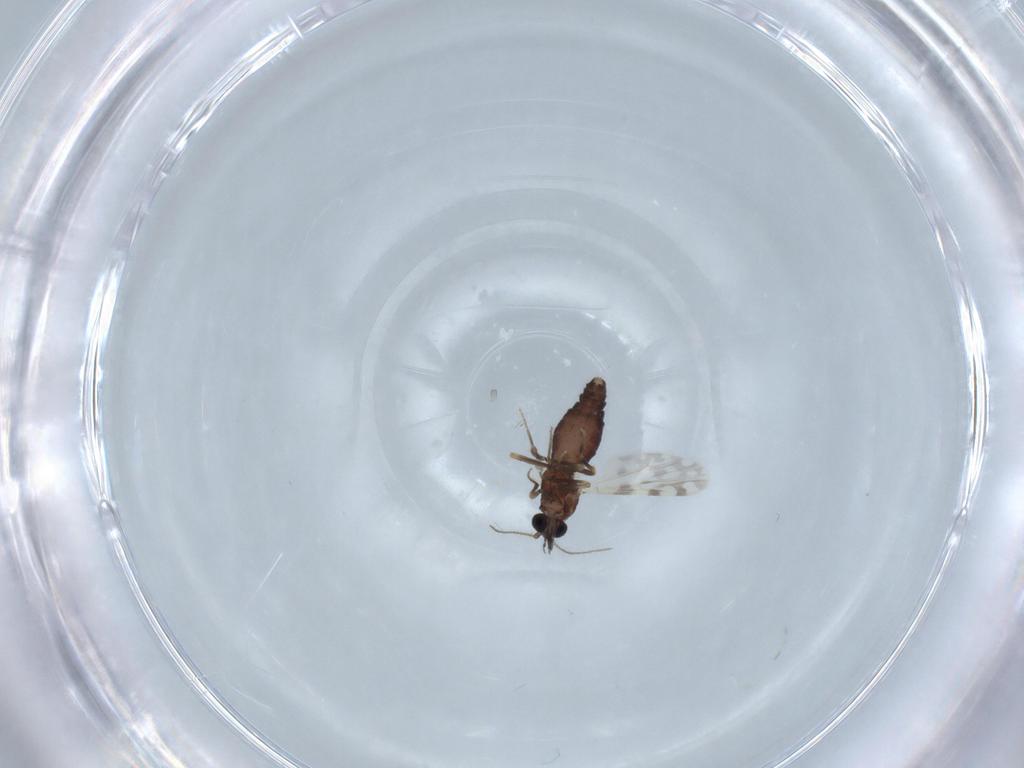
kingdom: Animalia
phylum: Arthropoda
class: Insecta
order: Diptera
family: Ceratopogonidae
